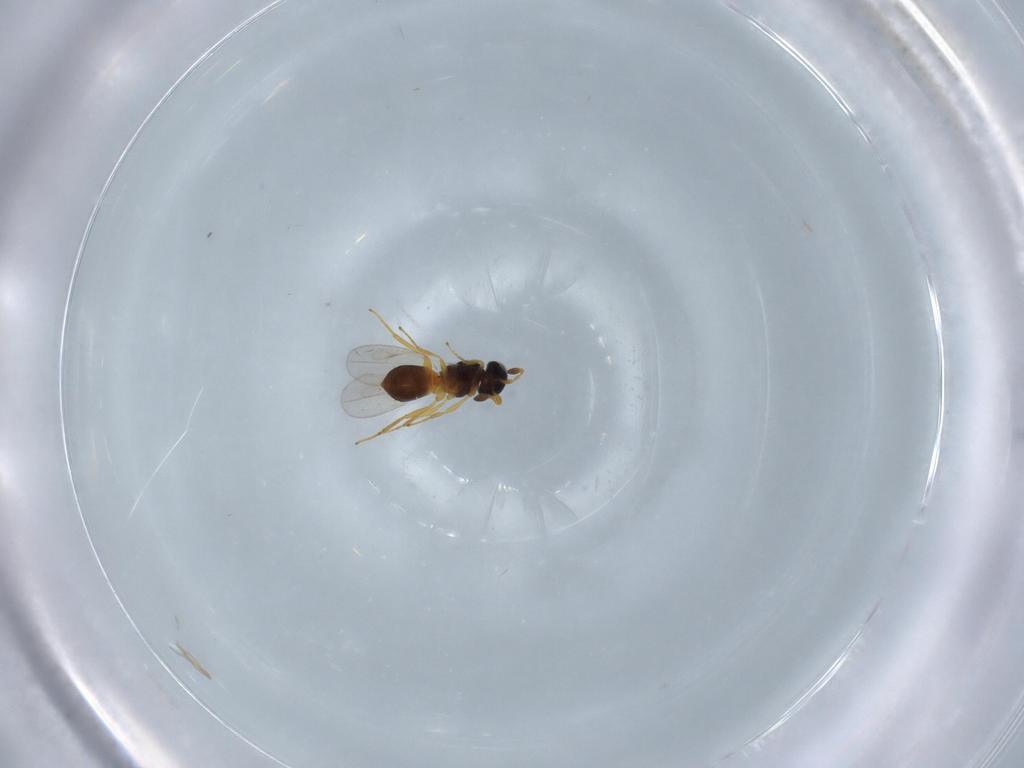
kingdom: Animalia
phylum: Arthropoda
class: Insecta
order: Hymenoptera
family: Platygastridae
